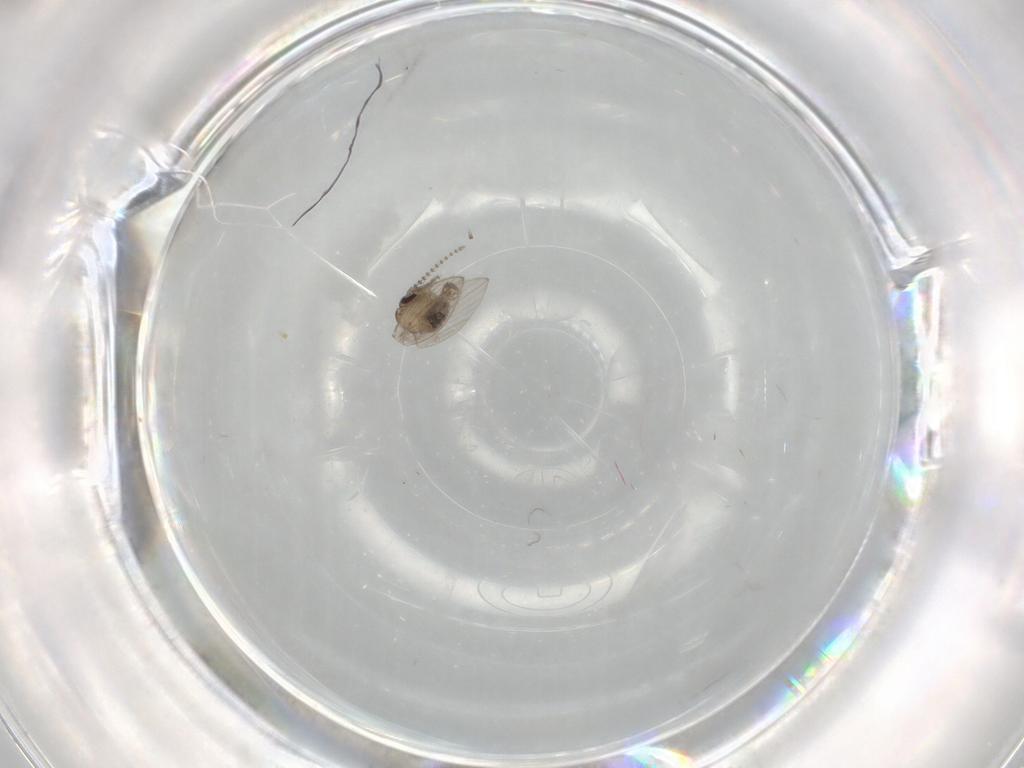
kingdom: Animalia
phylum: Arthropoda
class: Insecta
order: Diptera
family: Psychodidae
